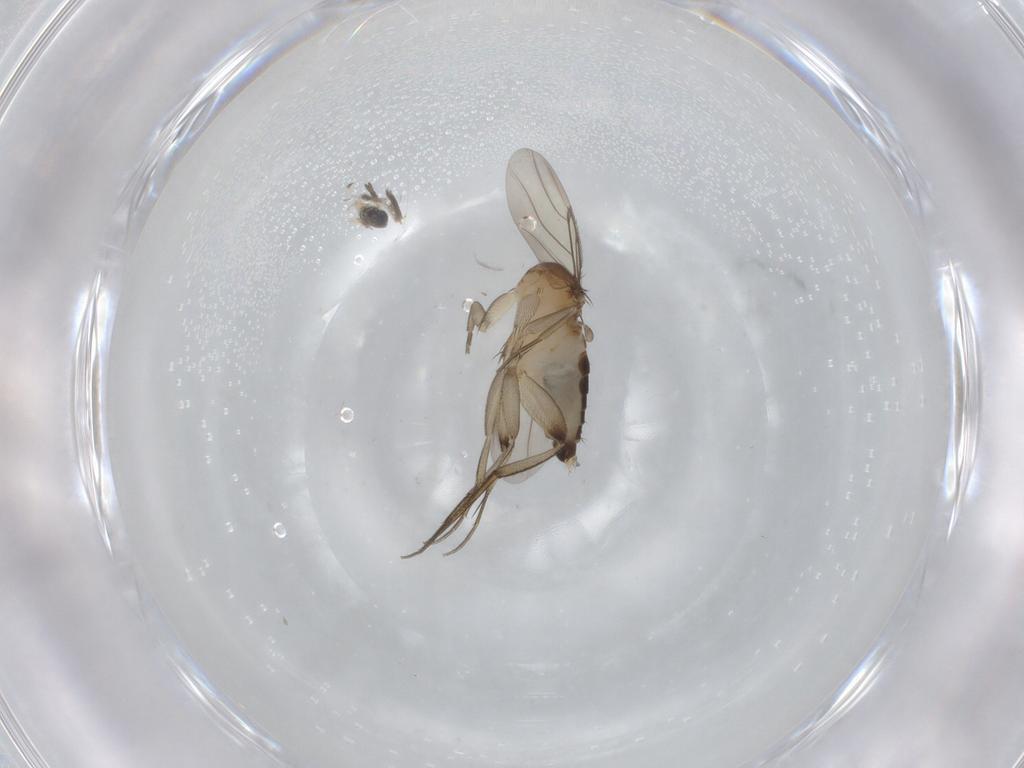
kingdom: Animalia
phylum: Arthropoda
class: Insecta
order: Diptera
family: Phoridae
